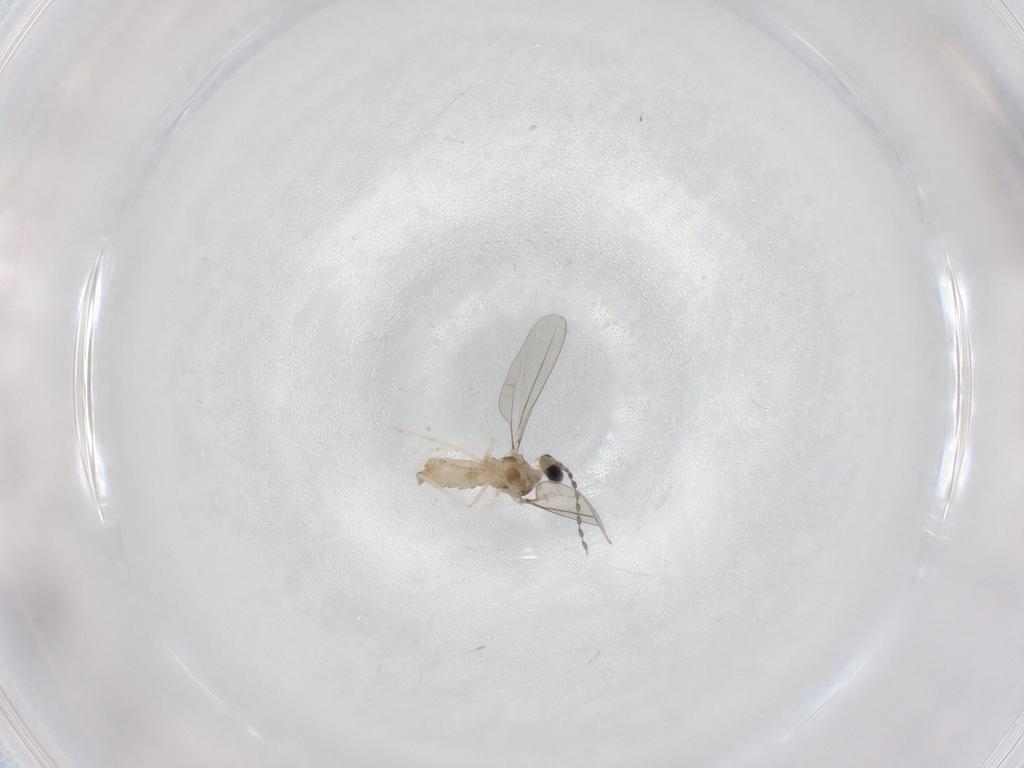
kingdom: Animalia
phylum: Arthropoda
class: Insecta
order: Diptera
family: Cecidomyiidae
